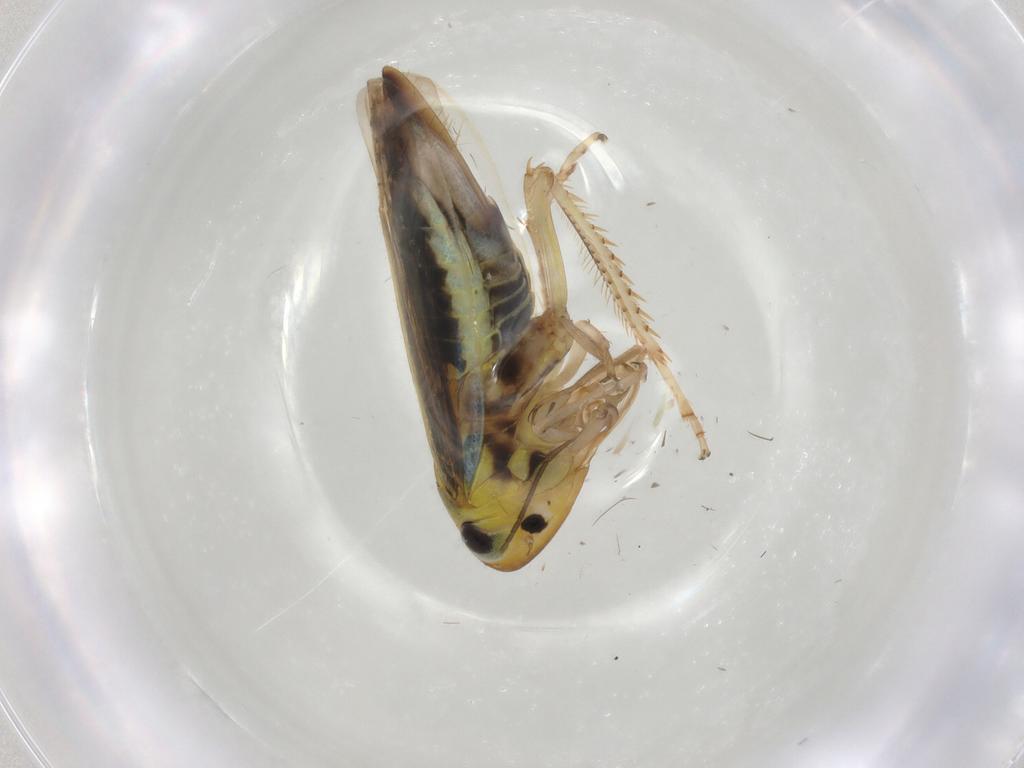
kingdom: Animalia
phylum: Arthropoda
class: Insecta
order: Hemiptera
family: Cicadellidae
